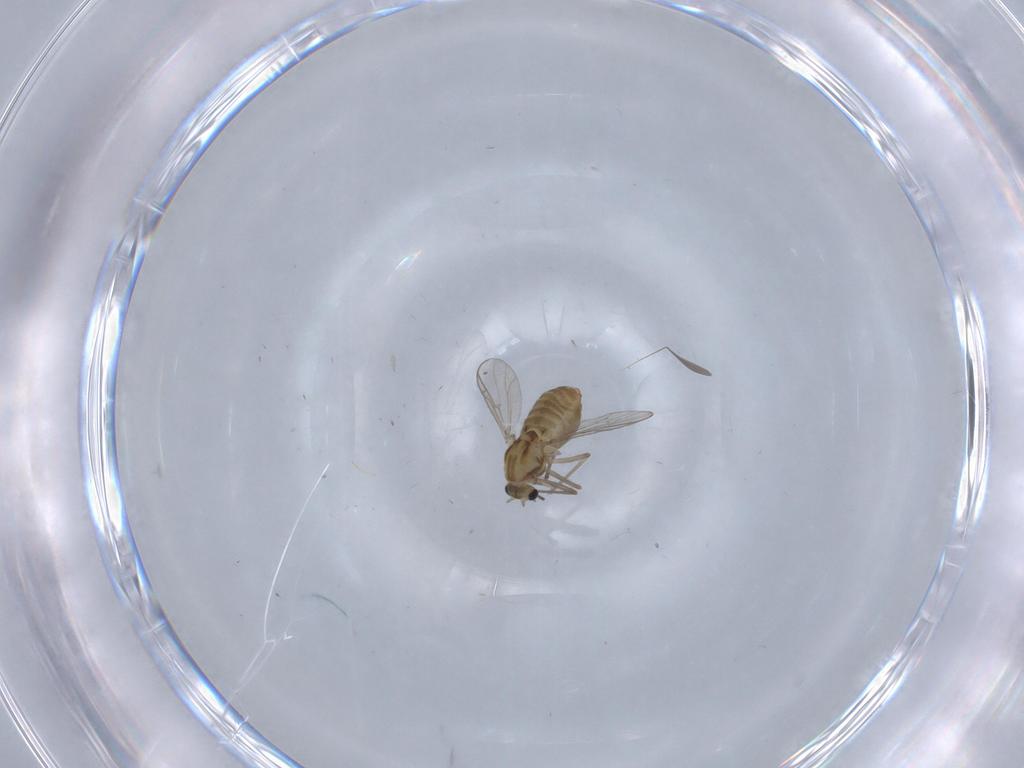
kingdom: Animalia
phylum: Arthropoda
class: Insecta
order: Diptera
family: Chironomidae
